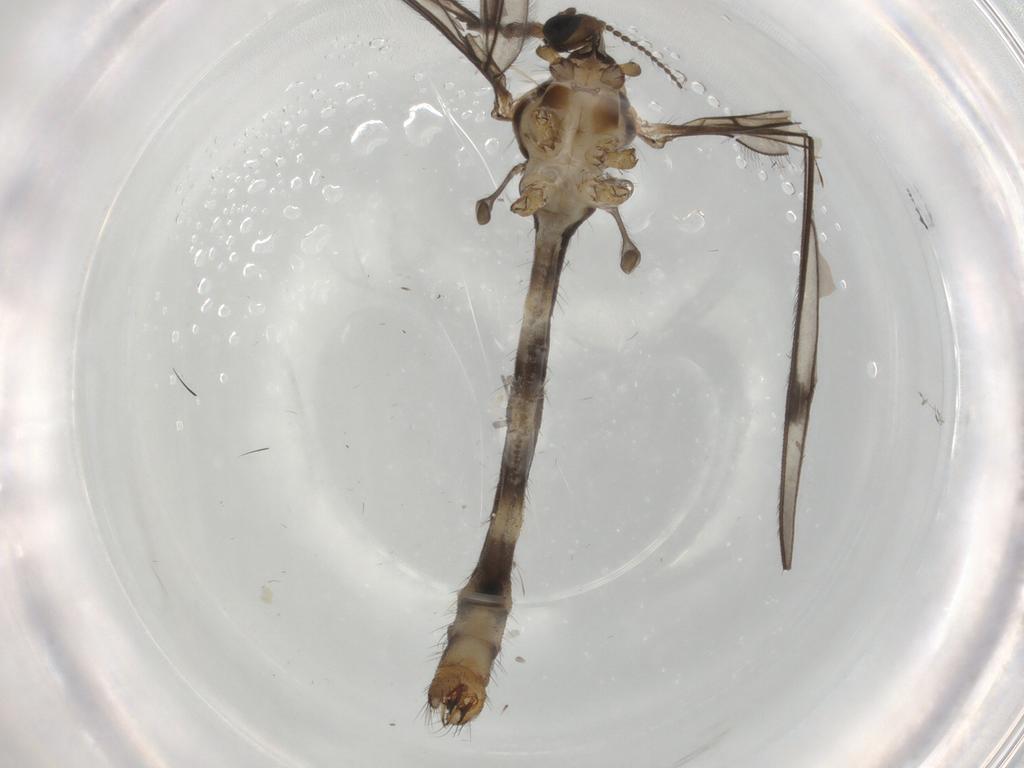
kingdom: Animalia
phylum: Arthropoda
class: Insecta
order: Diptera
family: Limoniidae
